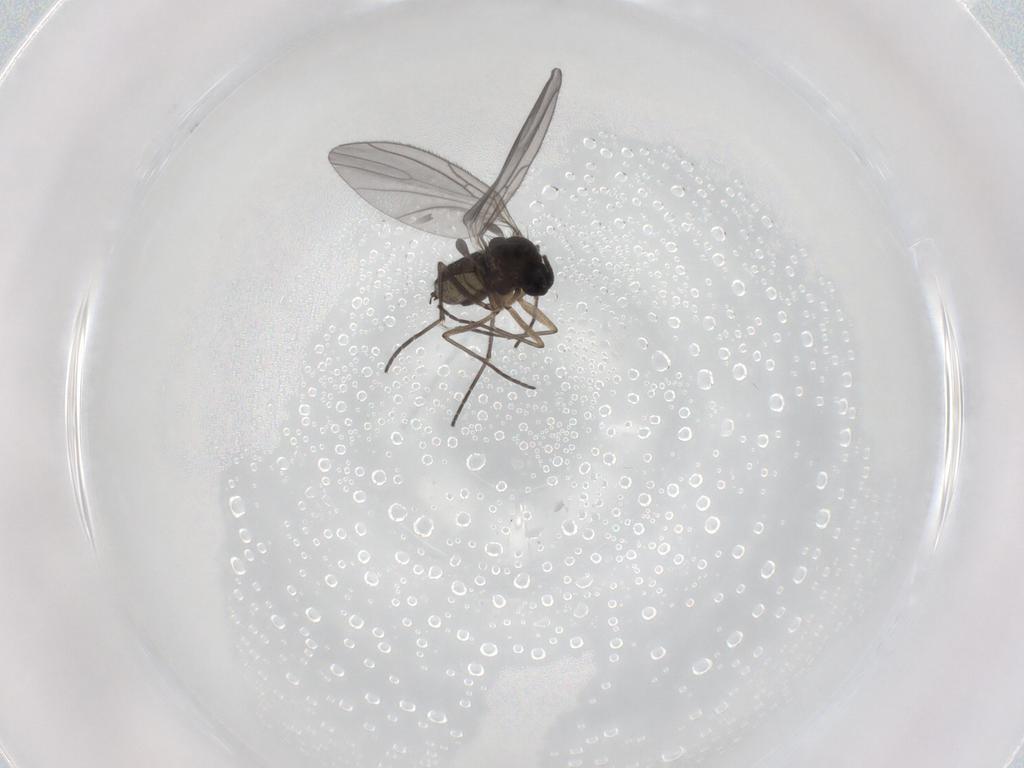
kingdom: Animalia
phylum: Arthropoda
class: Insecta
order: Diptera
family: Sciaridae
